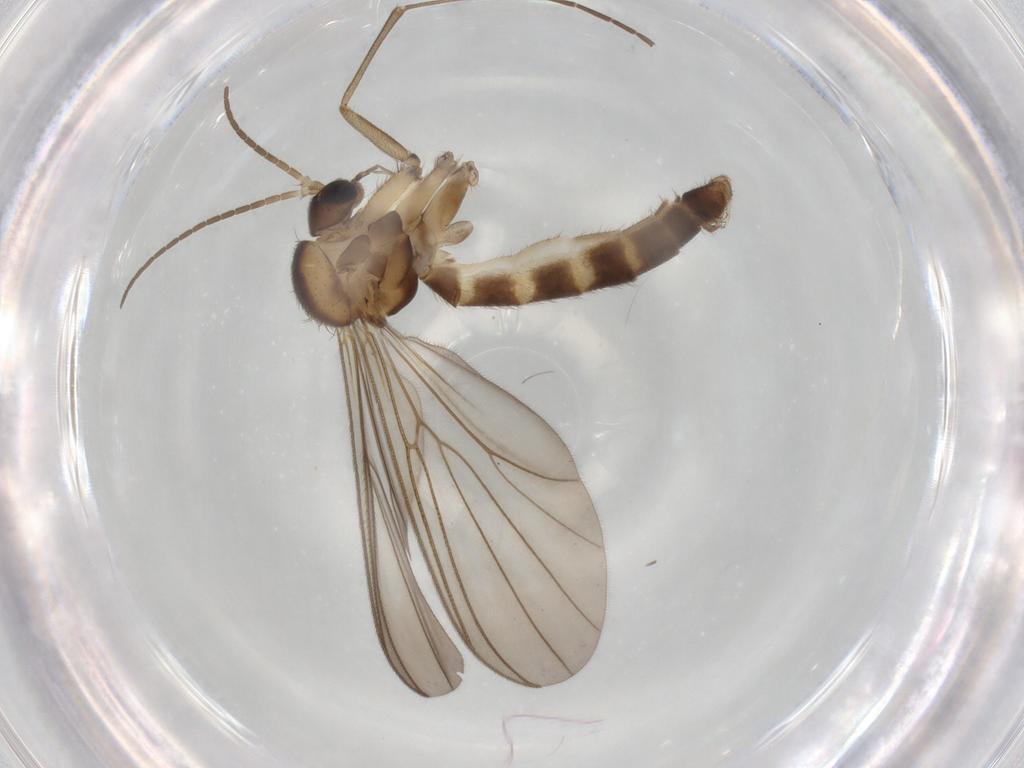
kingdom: Animalia
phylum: Arthropoda
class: Insecta
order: Diptera
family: Mycetophilidae
